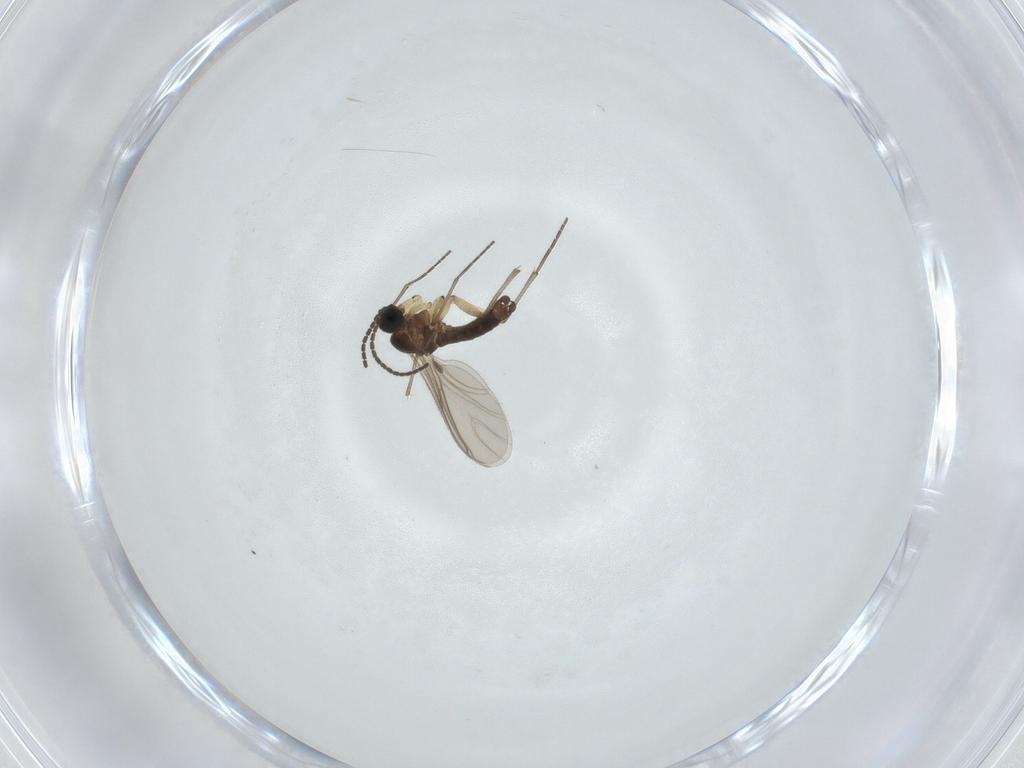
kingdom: Animalia
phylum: Arthropoda
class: Insecta
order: Diptera
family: Sciaridae
